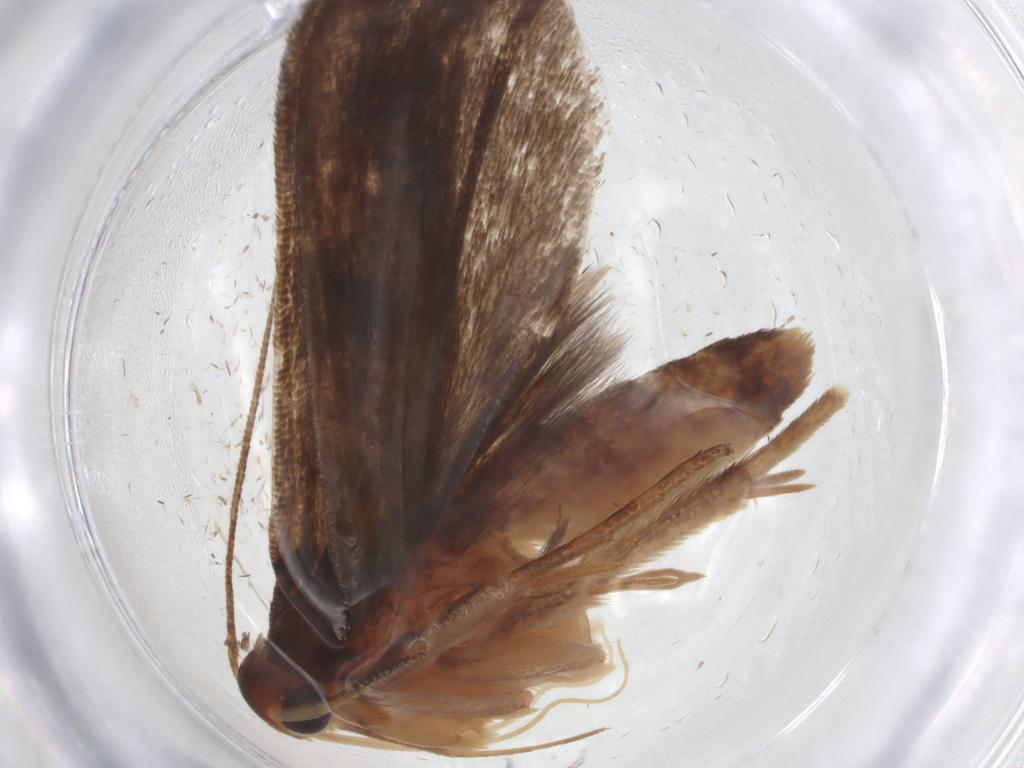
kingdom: Animalia
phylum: Arthropoda
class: Insecta
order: Lepidoptera
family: Nepticulidae
